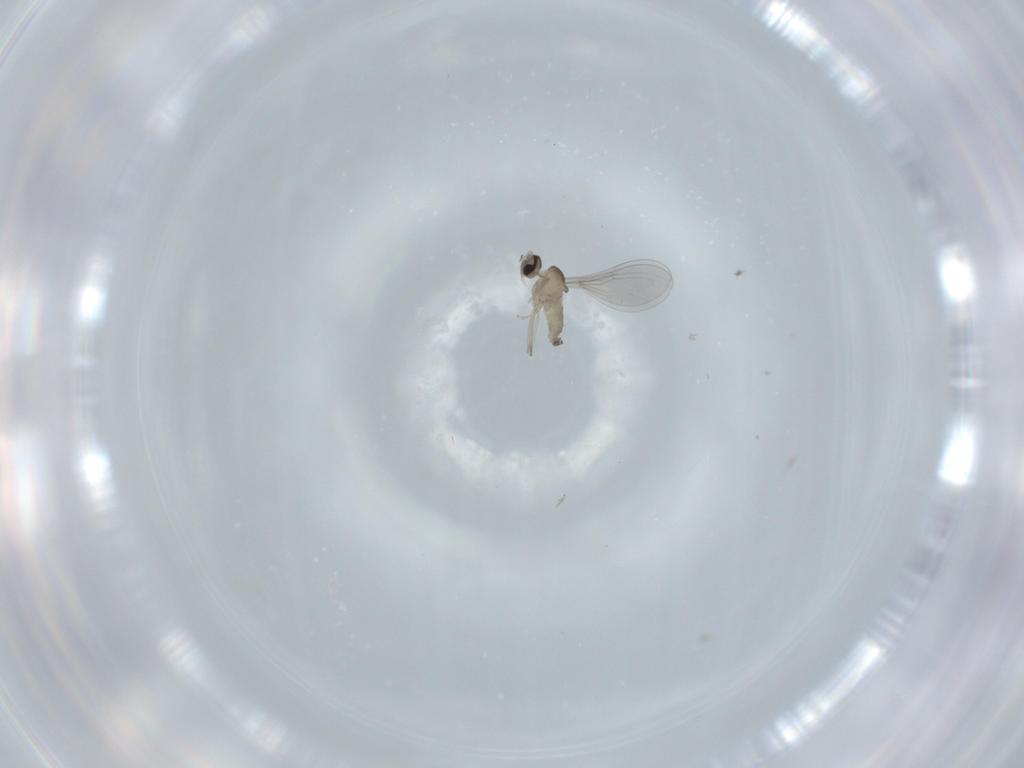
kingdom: Animalia
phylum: Arthropoda
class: Insecta
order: Diptera
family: Chironomidae
